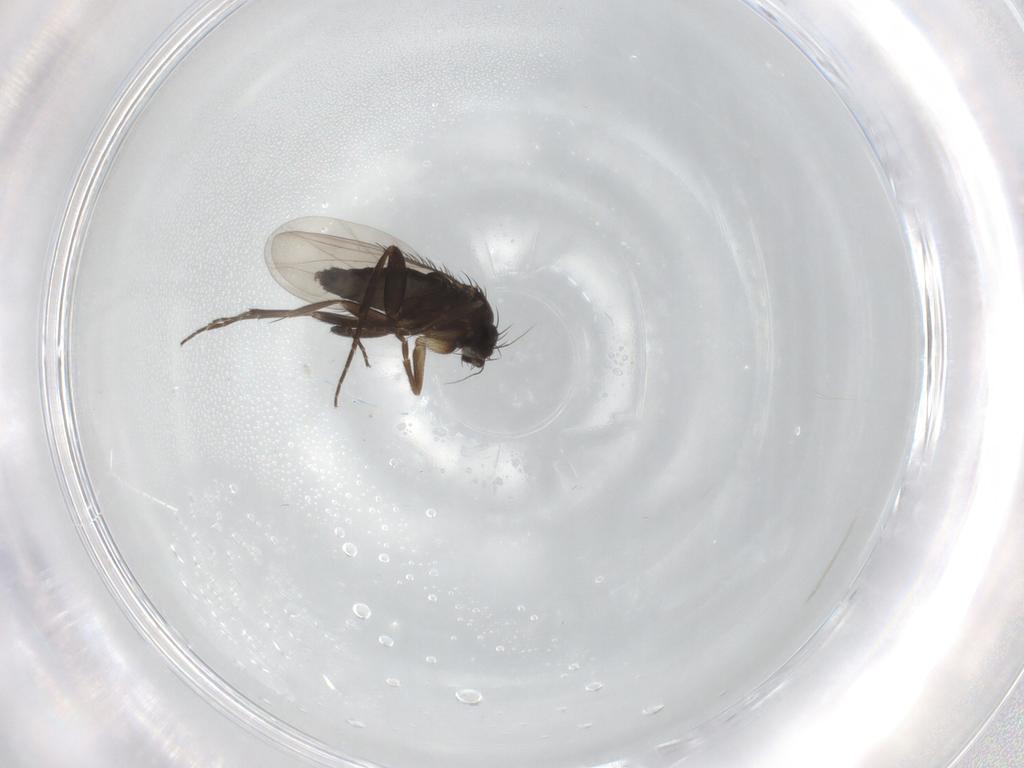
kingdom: Animalia
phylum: Arthropoda
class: Insecta
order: Diptera
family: Phoridae
